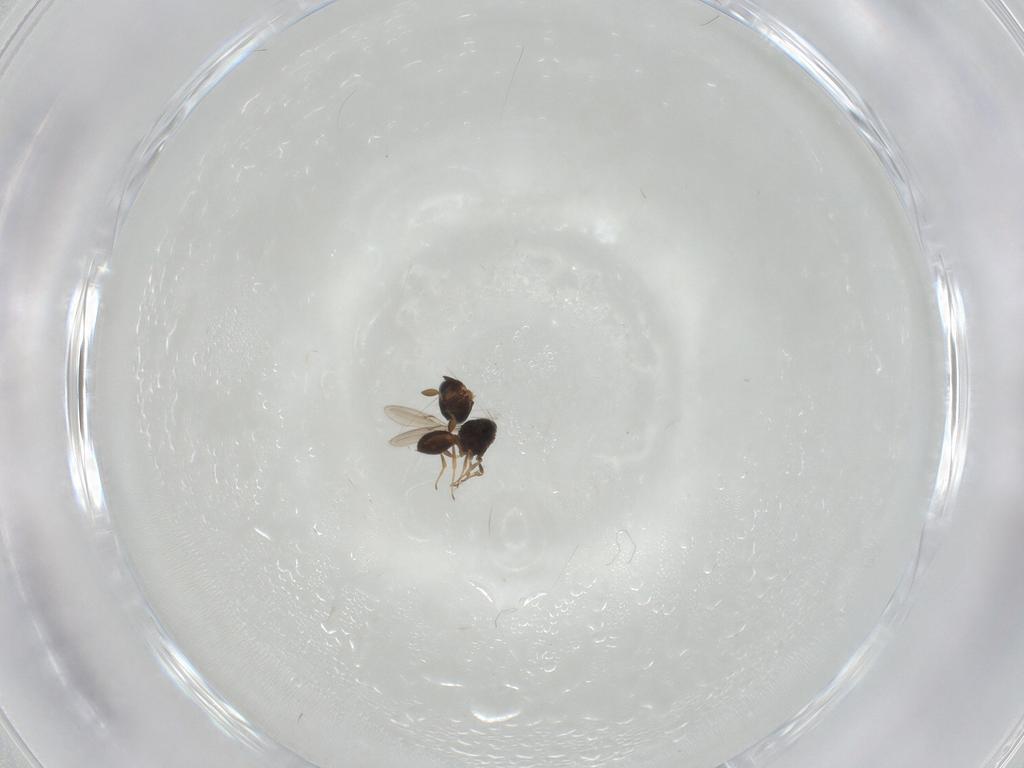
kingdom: Animalia
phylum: Arthropoda
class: Insecta
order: Hymenoptera
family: Scelionidae
